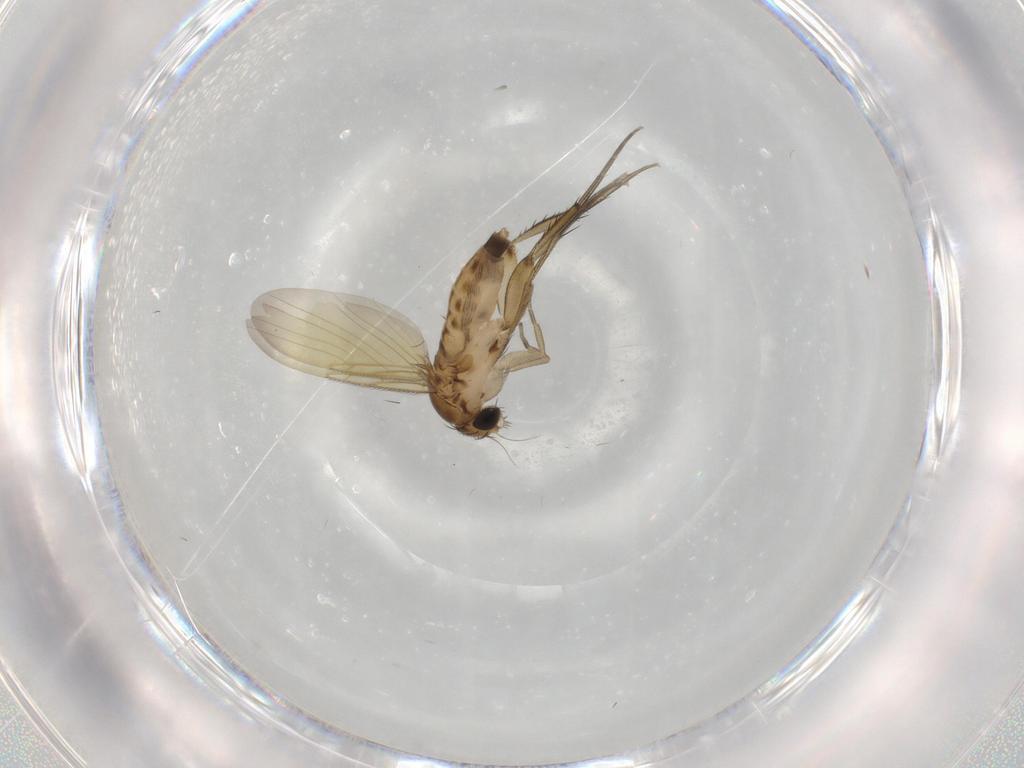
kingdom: Animalia
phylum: Arthropoda
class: Insecta
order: Diptera
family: Phoridae
